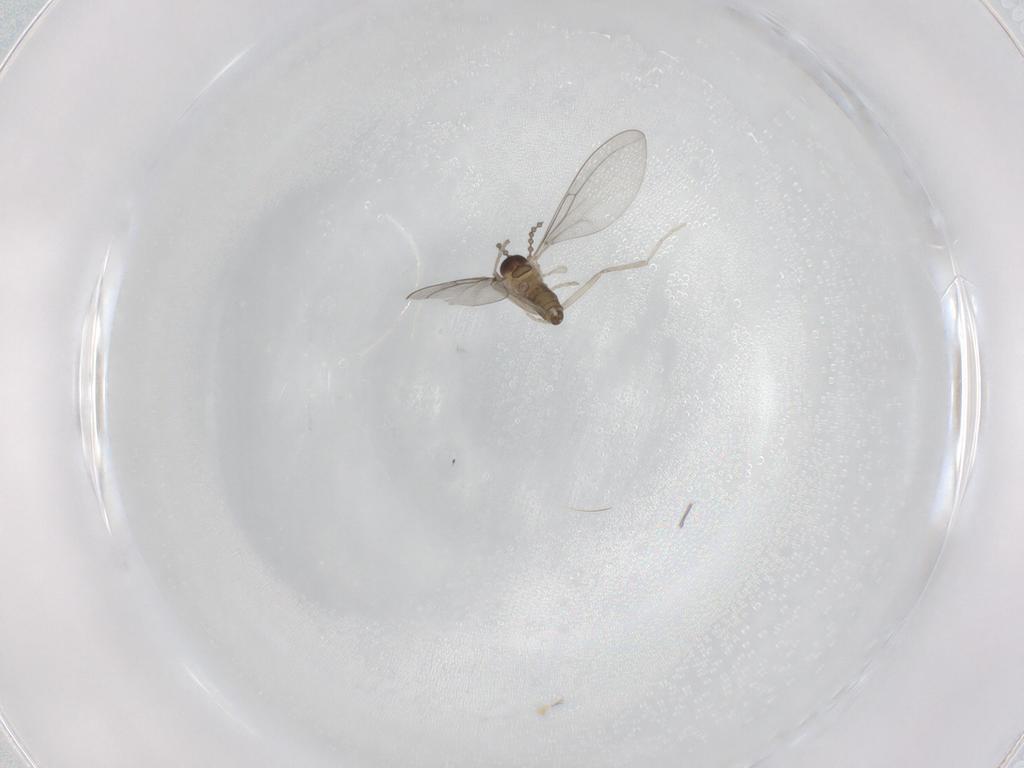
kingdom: Animalia
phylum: Arthropoda
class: Insecta
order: Diptera
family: Cecidomyiidae
